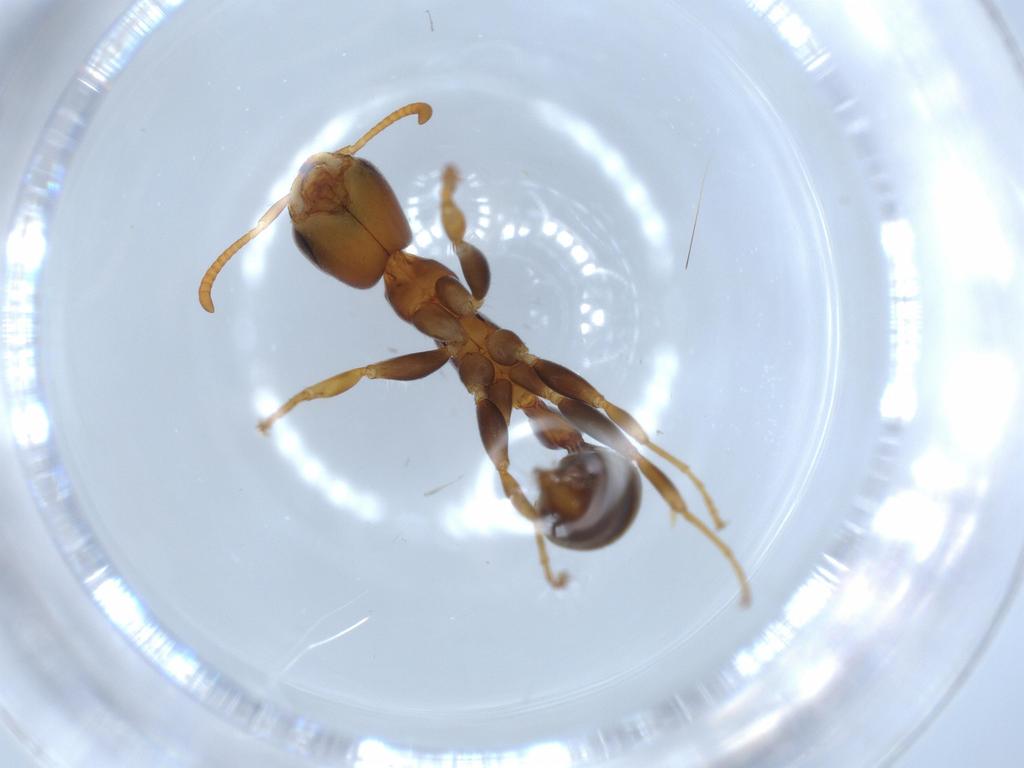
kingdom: Animalia
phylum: Arthropoda
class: Insecta
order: Hymenoptera
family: Formicidae
